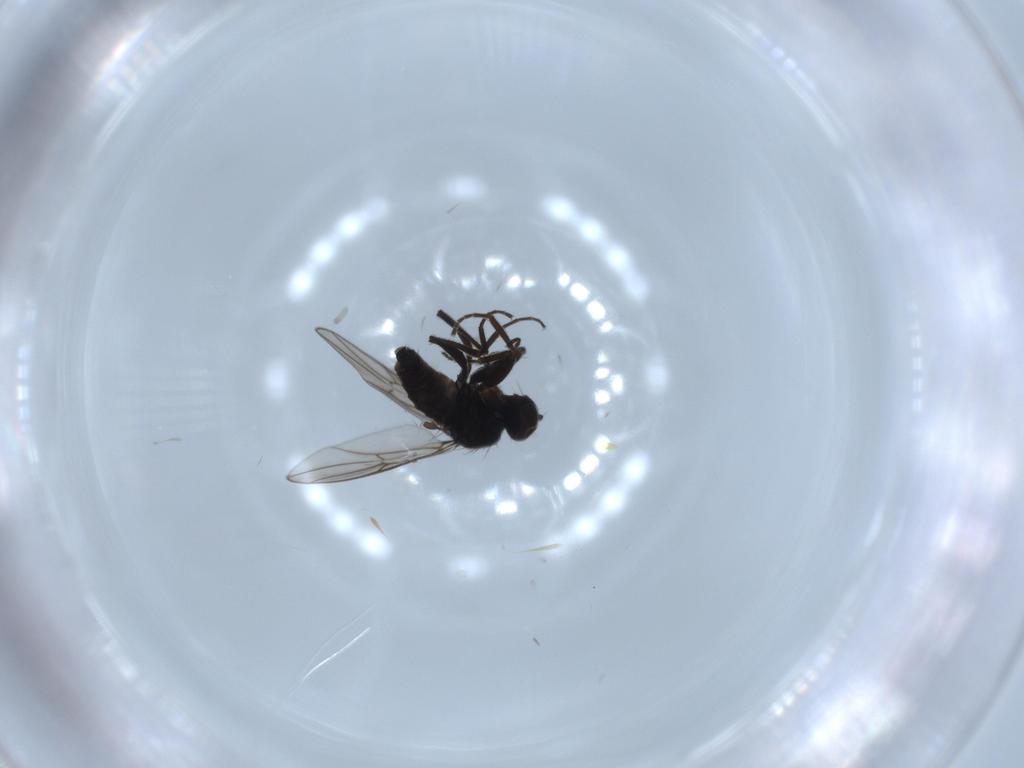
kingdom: Animalia
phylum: Arthropoda
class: Insecta
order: Diptera
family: Hybotidae
